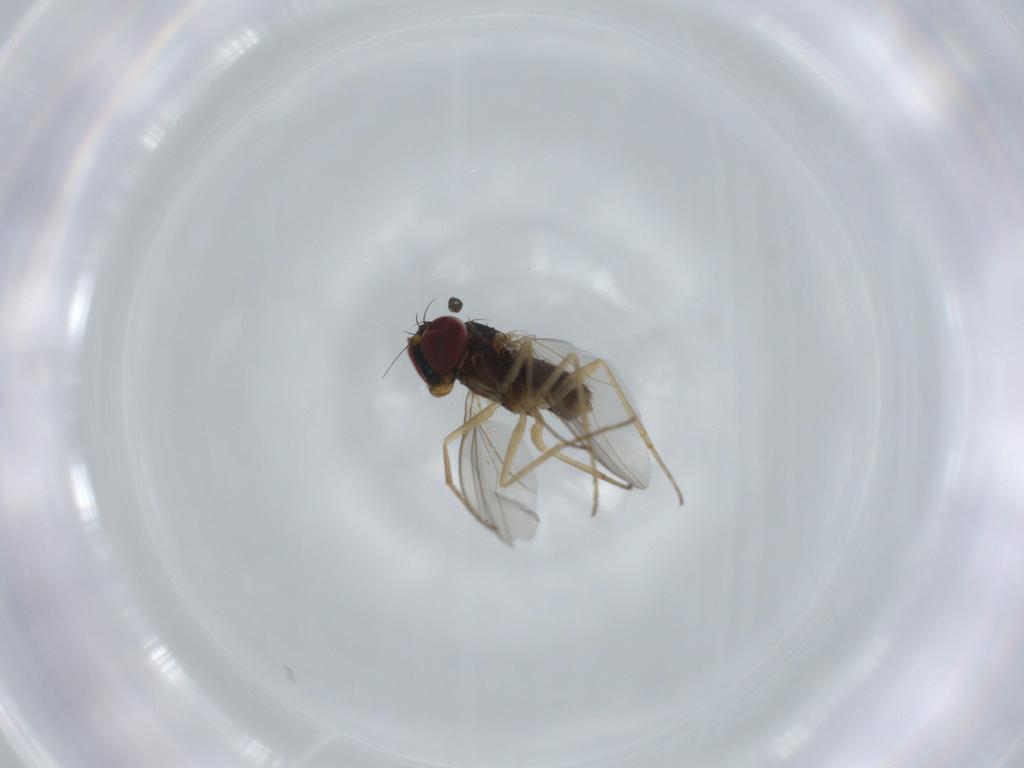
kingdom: Animalia
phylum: Arthropoda
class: Insecta
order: Diptera
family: Dolichopodidae
